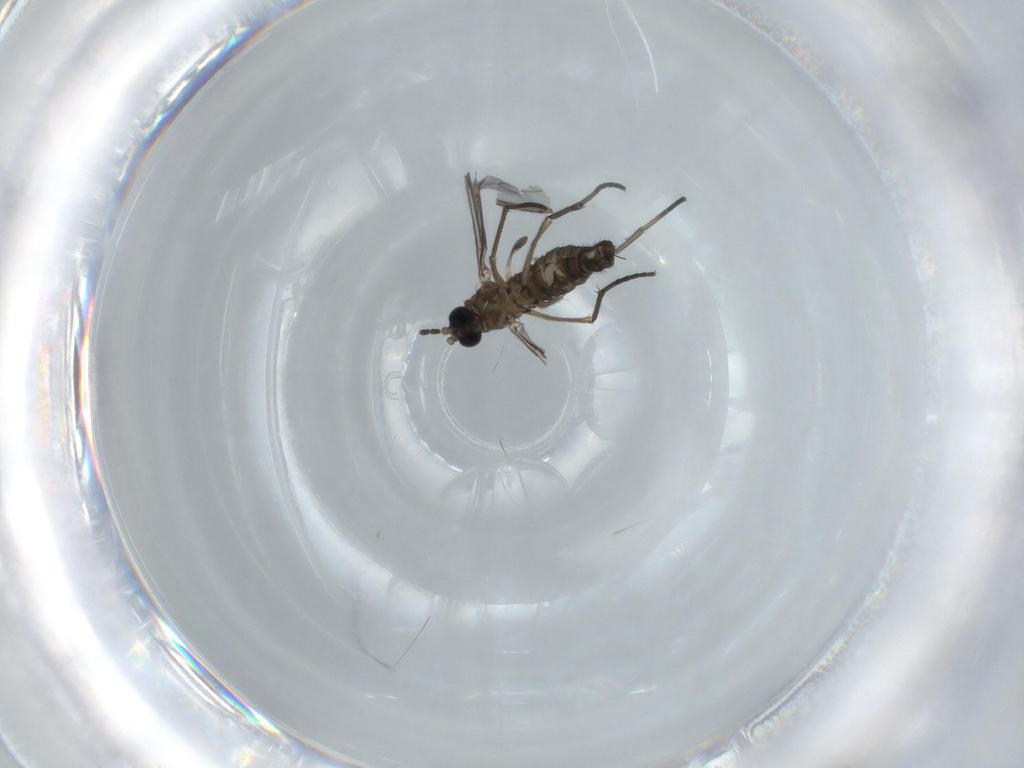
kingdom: Animalia
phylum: Arthropoda
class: Insecta
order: Diptera
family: Sciaridae
